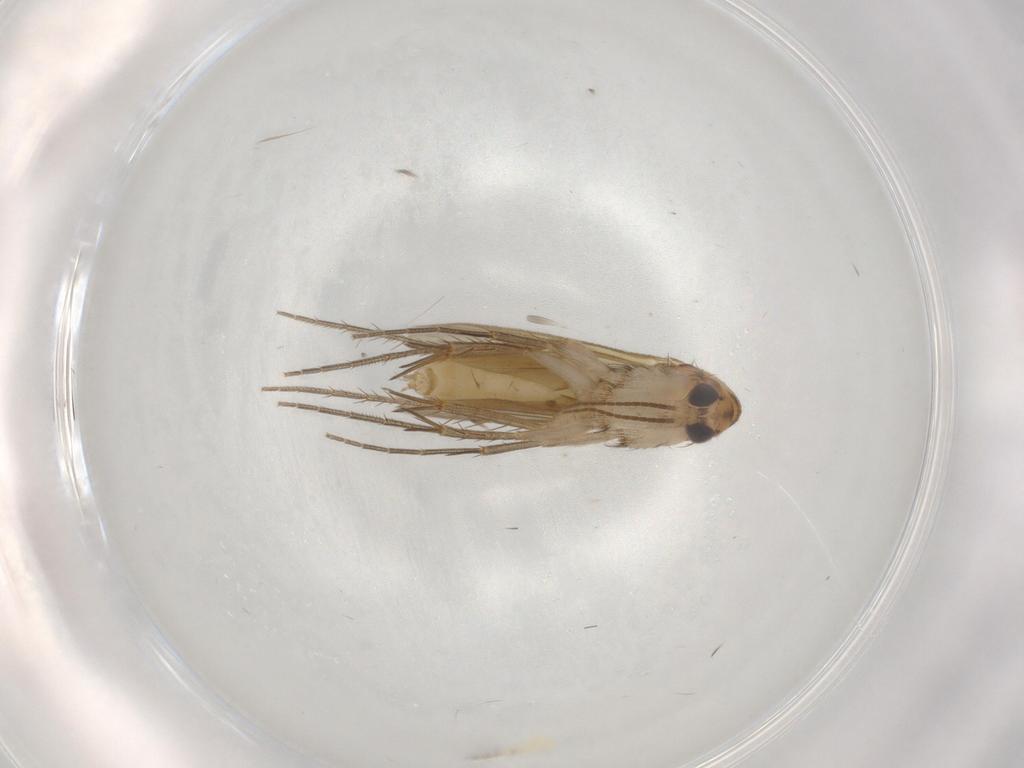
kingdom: Animalia
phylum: Arthropoda
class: Insecta
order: Diptera
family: Mycetophilidae
